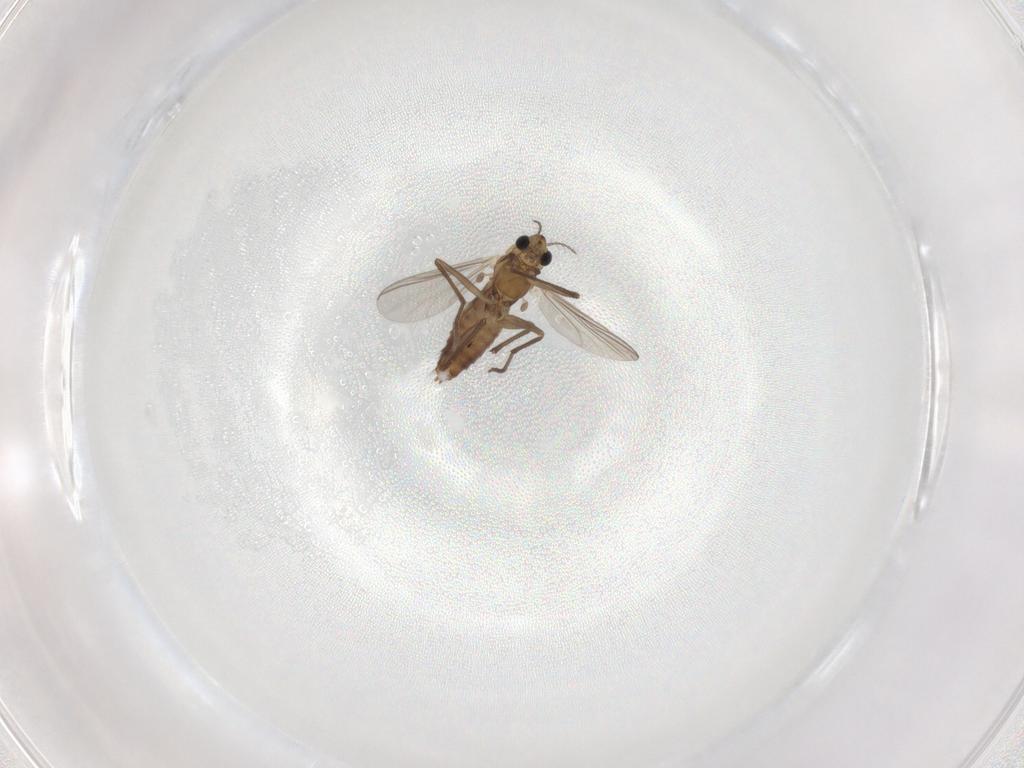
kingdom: Animalia
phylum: Arthropoda
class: Insecta
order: Diptera
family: Chironomidae
